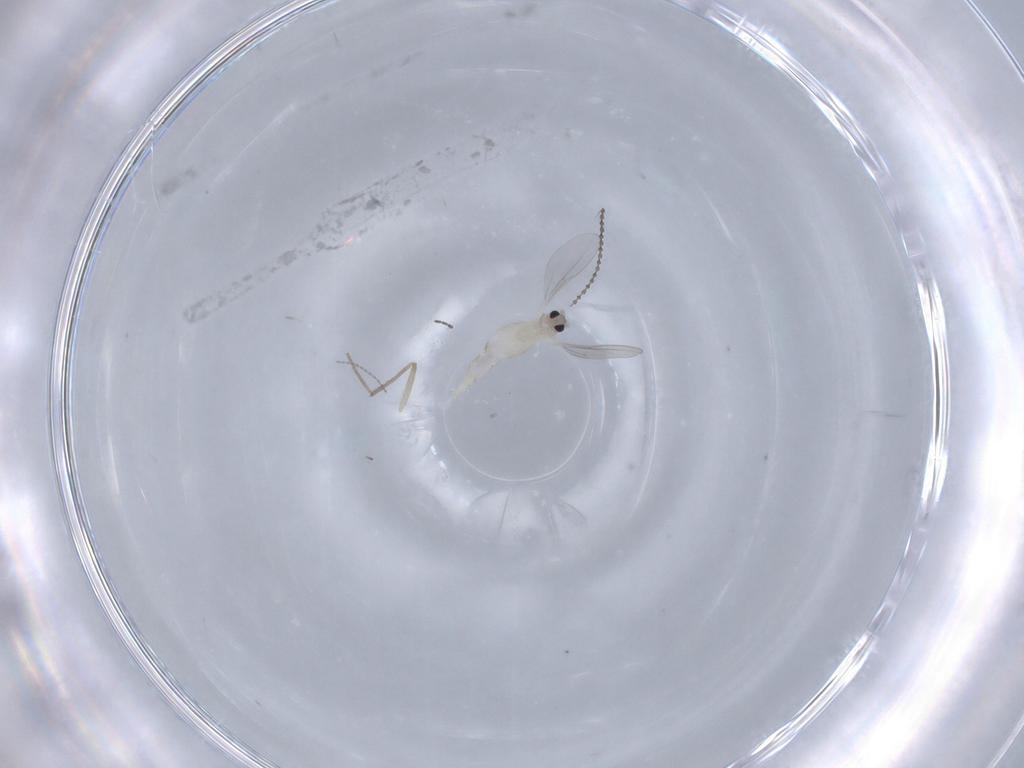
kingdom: Animalia
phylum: Arthropoda
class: Insecta
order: Diptera
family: Cecidomyiidae
